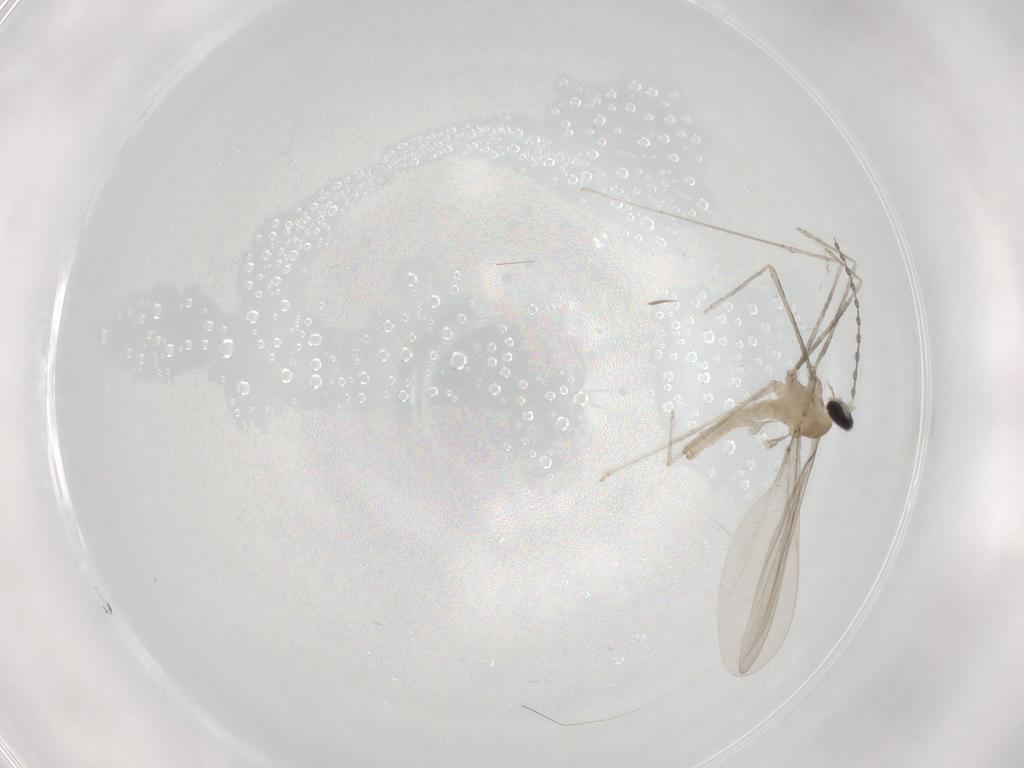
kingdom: Animalia
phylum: Arthropoda
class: Insecta
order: Diptera
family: Cecidomyiidae
